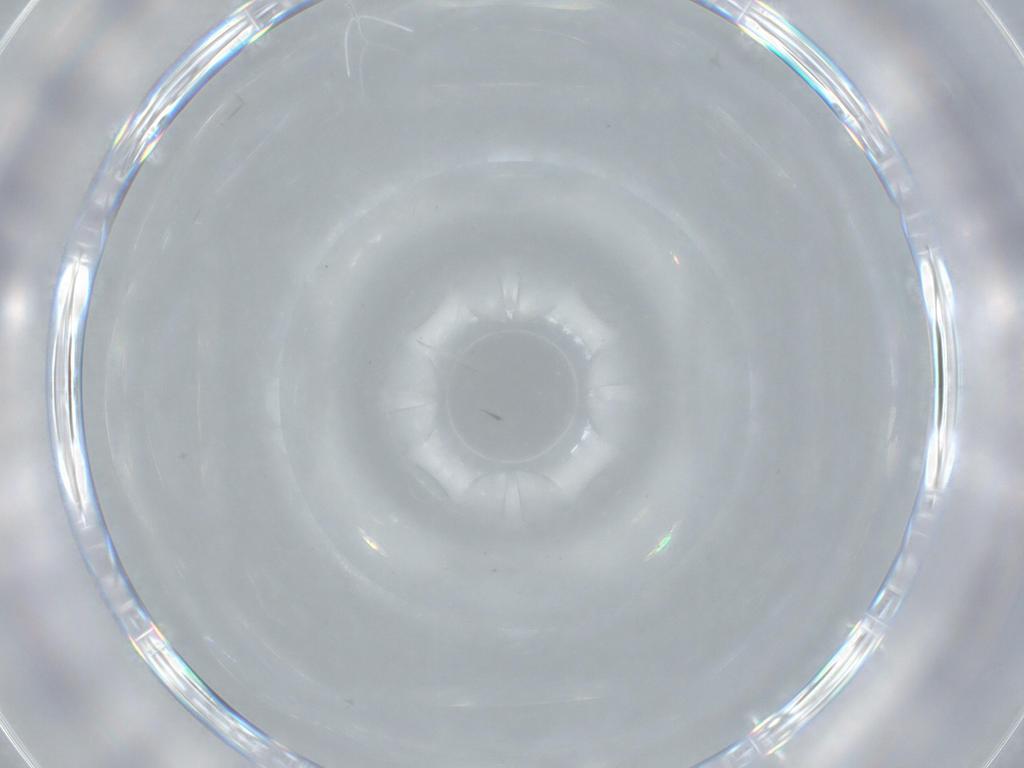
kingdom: Animalia
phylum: Arthropoda
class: Insecta
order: Diptera
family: Cecidomyiidae
